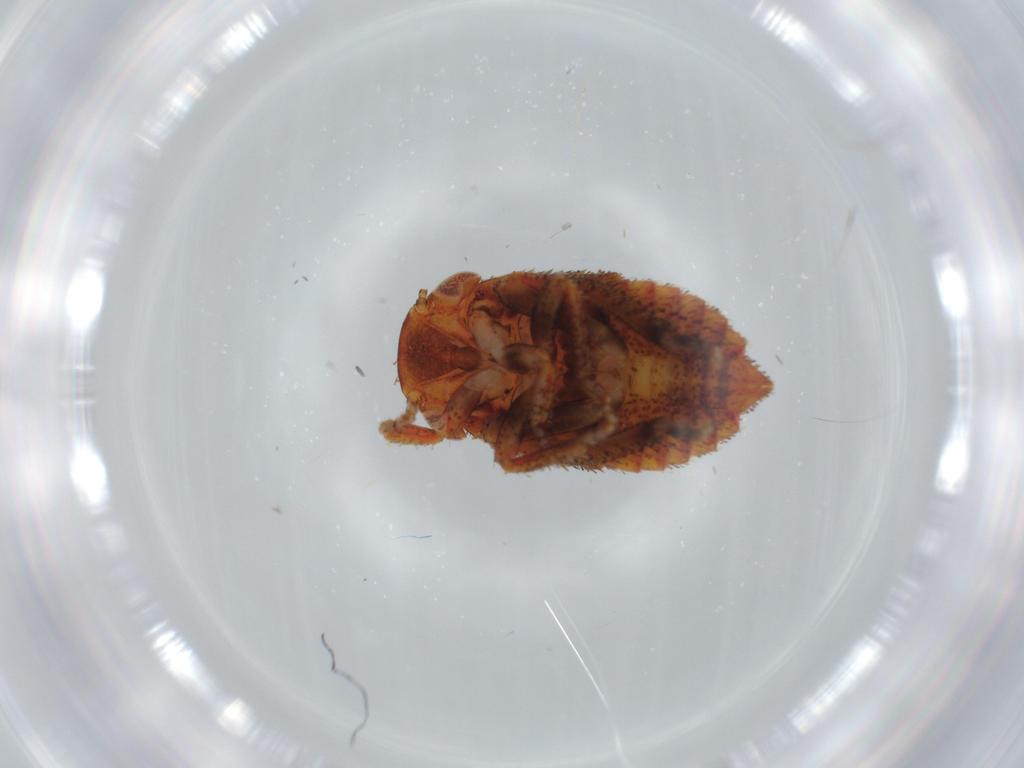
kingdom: Animalia
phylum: Arthropoda
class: Insecta
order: Hemiptera
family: Cicadellidae
